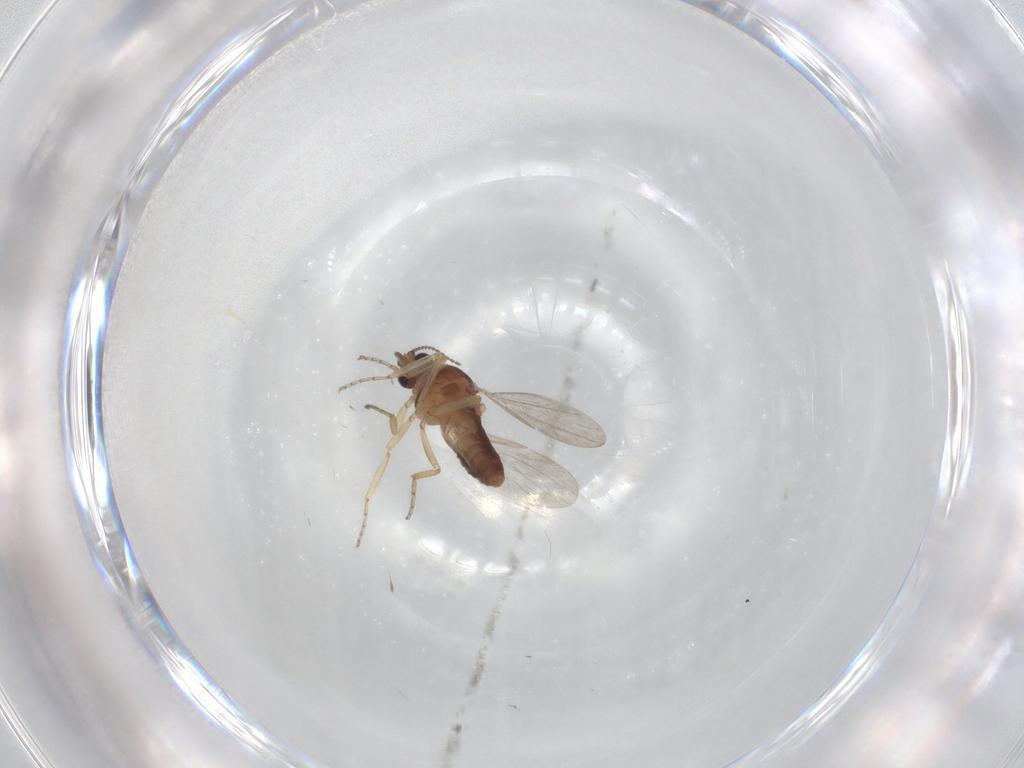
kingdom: Animalia
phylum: Arthropoda
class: Insecta
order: Diptera
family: Ceratopogonidae
